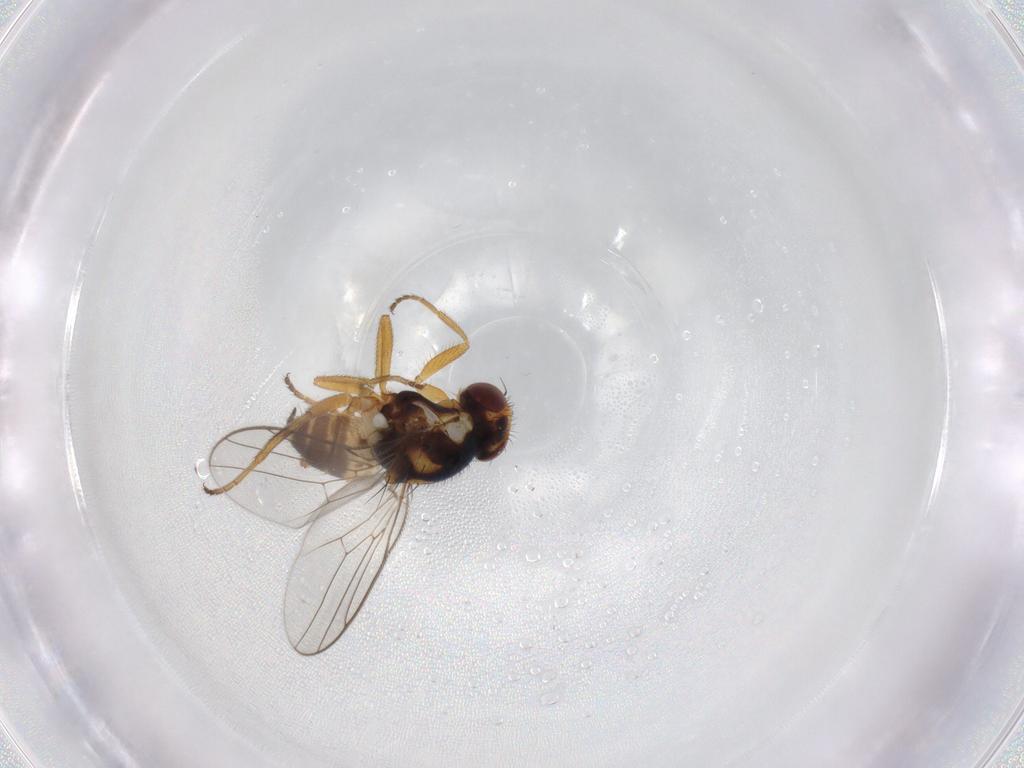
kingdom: Animalia
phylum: Arthropoda
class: Insecta
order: Diptera
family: Chloropidae
